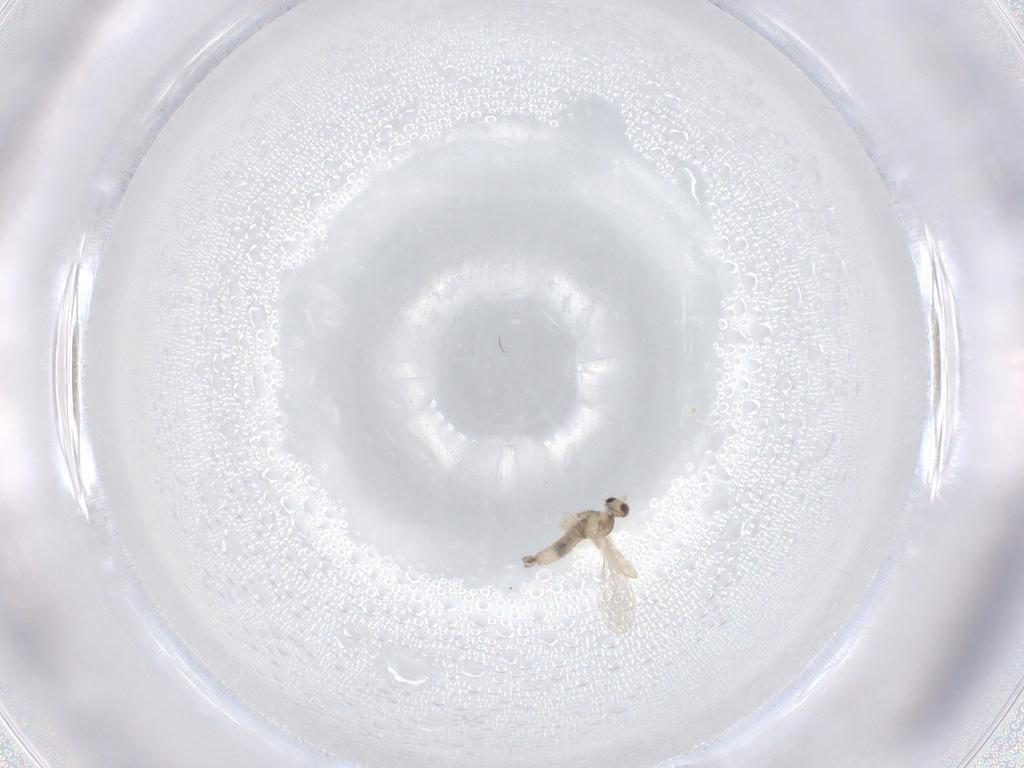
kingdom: Animalia
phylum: Arthropoda
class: Insecta
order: Diptera
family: Cecidomyiidae
